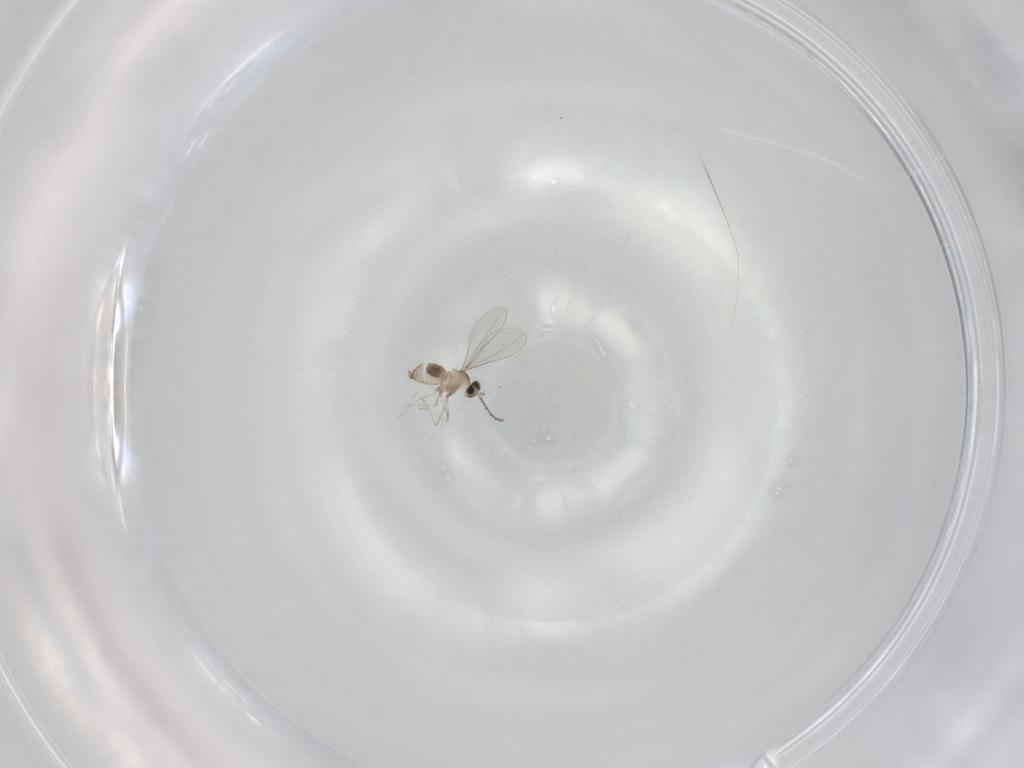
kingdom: Animalia
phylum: Arthropoda
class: Insecta
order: Diptera
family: Cecidomyiidae
